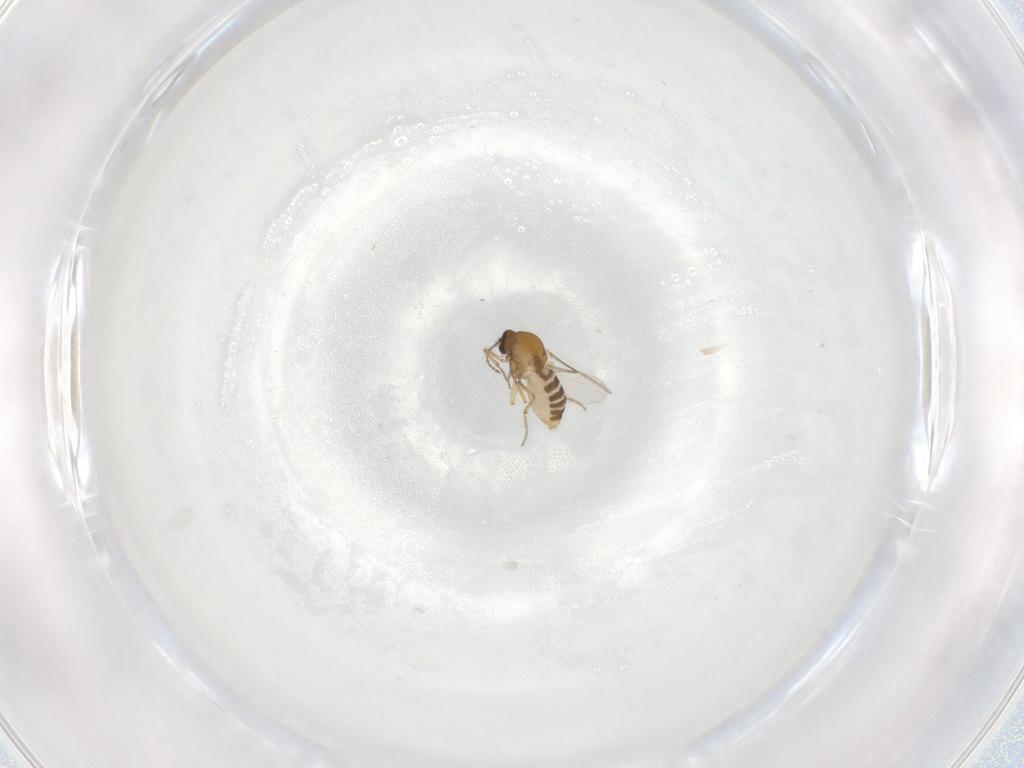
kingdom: Animalia
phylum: Arthropoda
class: Insecta
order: Diptera
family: Ceratopogonidae
